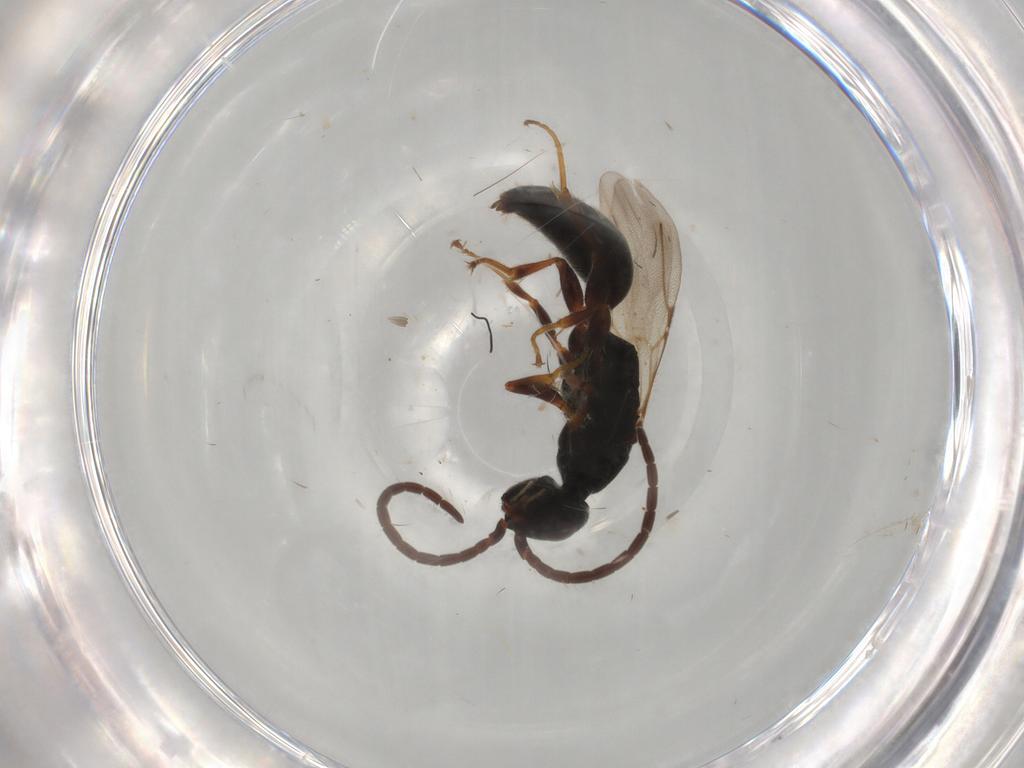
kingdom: Animalia
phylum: Arthropoda
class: Insecta
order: Hymenoptera
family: Bethylidae
